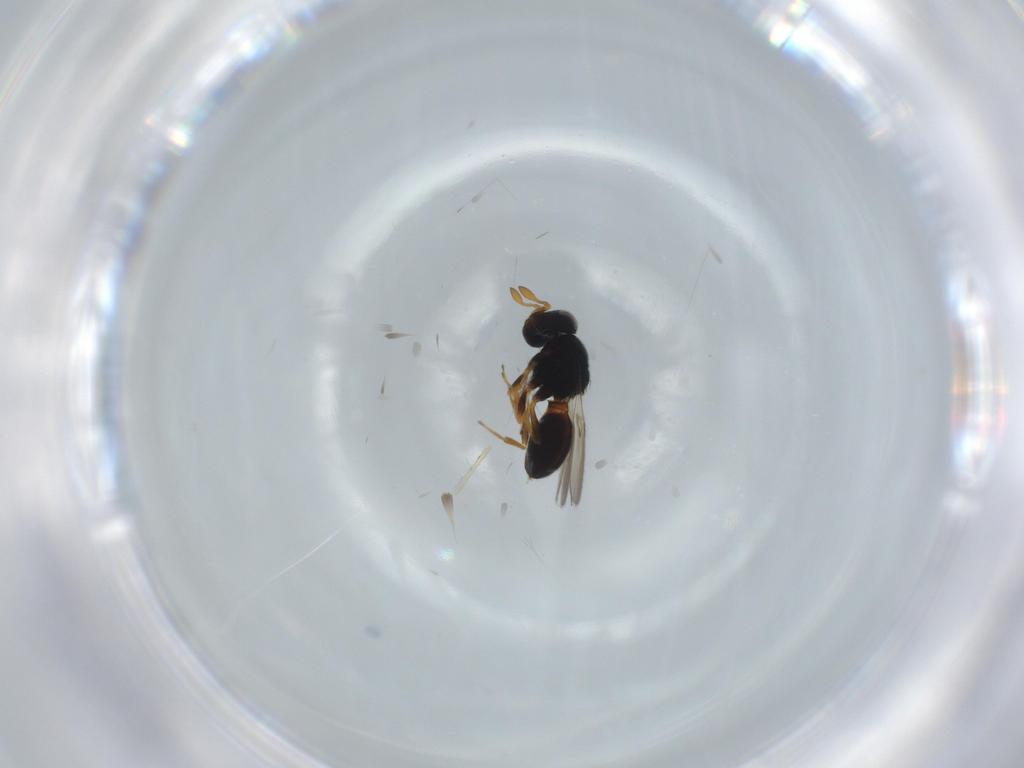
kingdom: Animalia
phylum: Arthropoda
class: Insecta
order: Hymenoptera
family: Scelionidae
